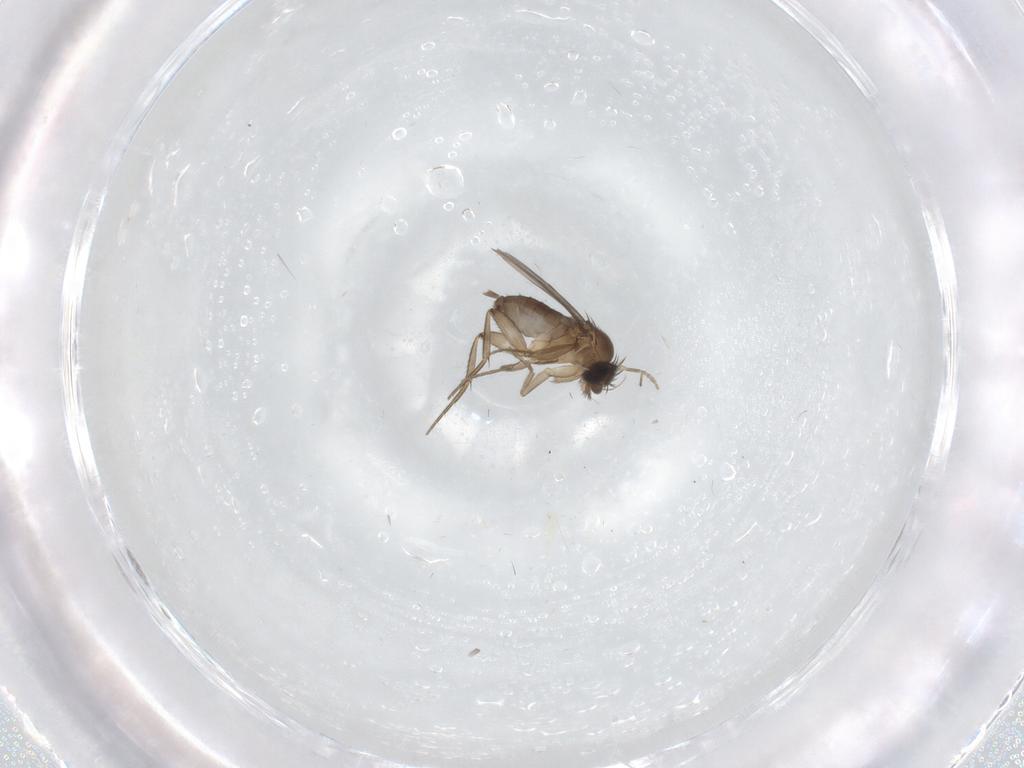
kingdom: Animalia
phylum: Arthropoda
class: Insecta
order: Diptera
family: Phoridae
